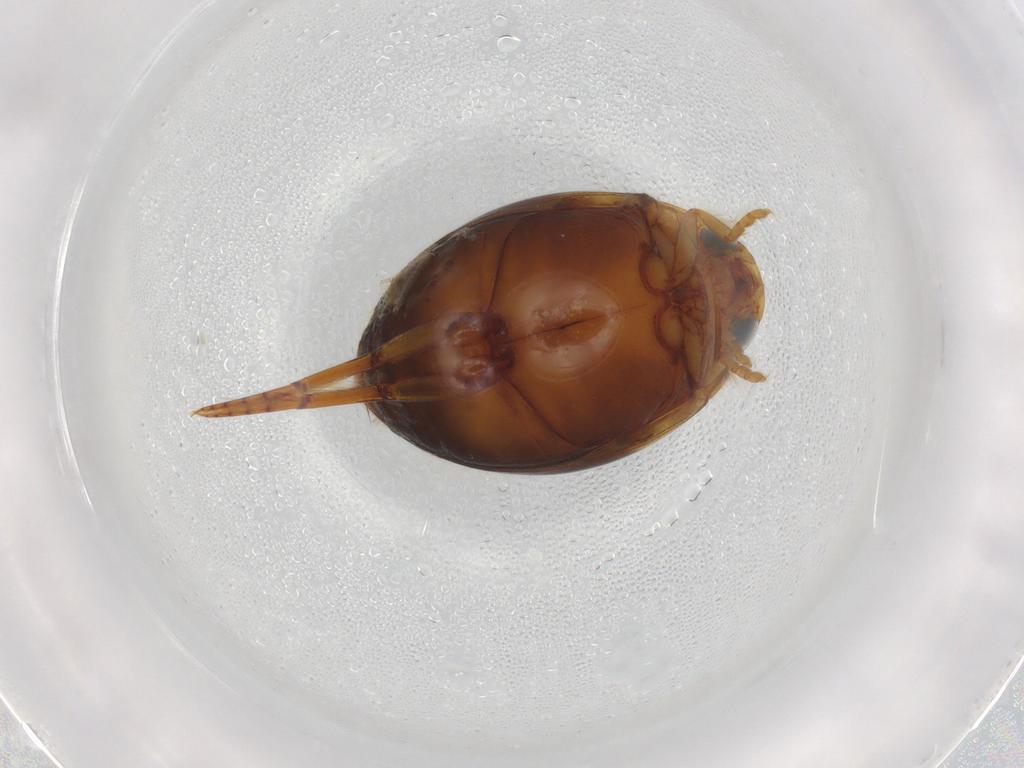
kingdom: Animalia
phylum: Arthropoda
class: Insecta
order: Coleoptera
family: Dytiscidae
